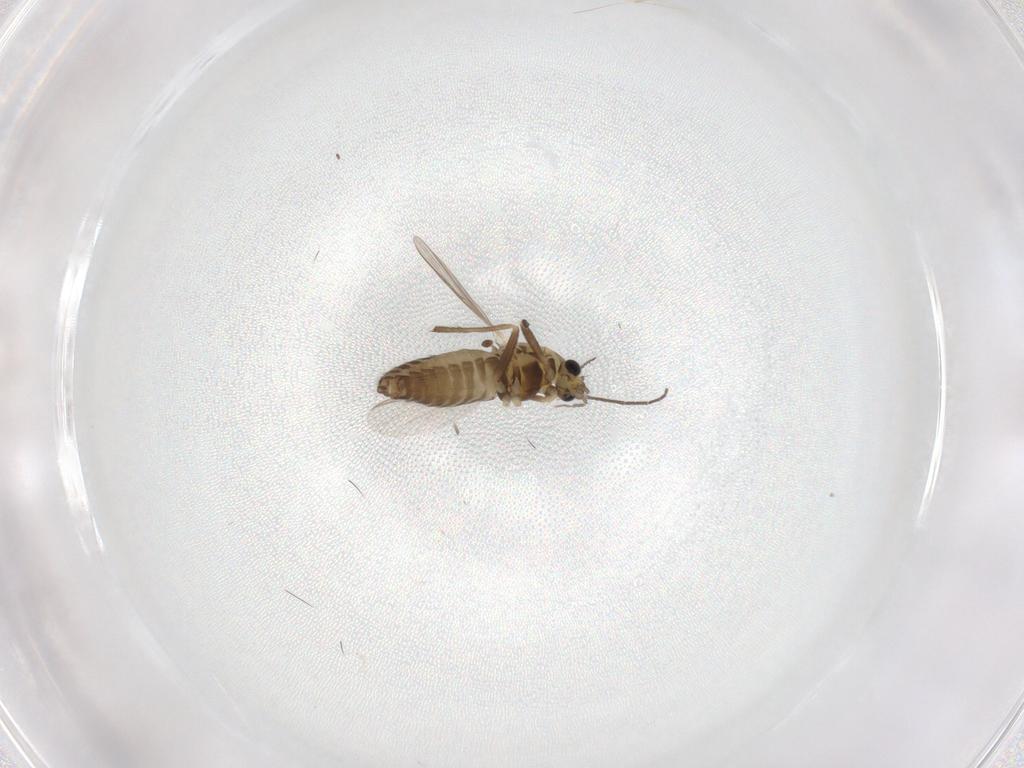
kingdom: Animalia
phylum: Arthropoda
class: Insecta
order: Diptera
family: Chironomidae
